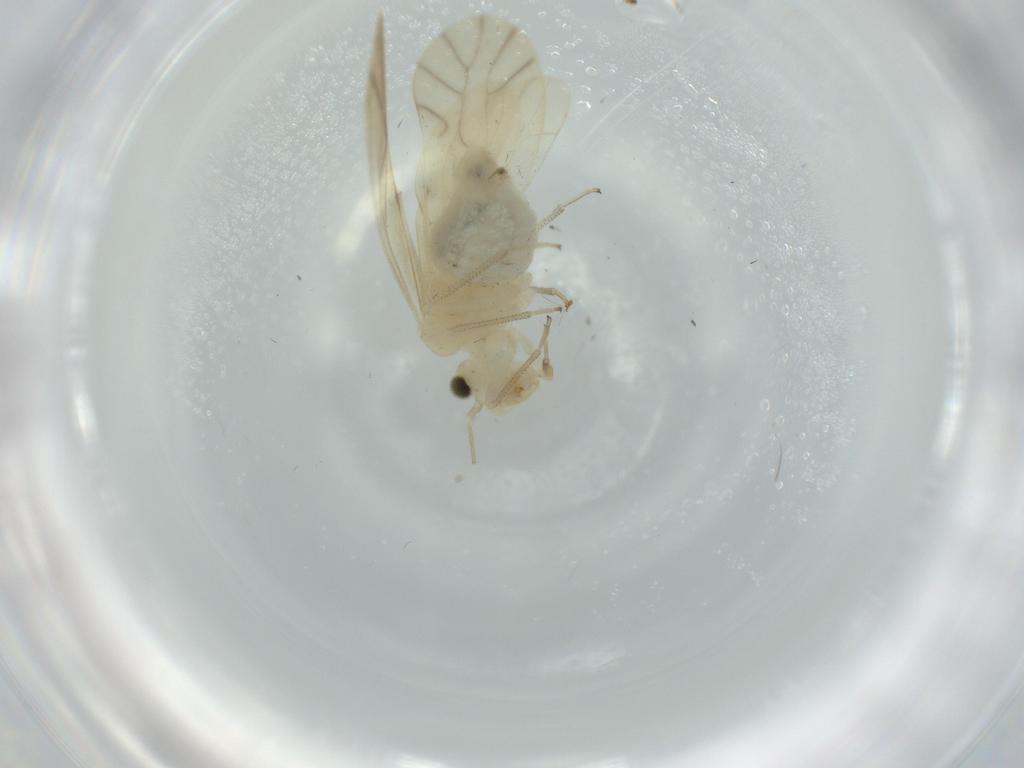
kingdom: Animalia
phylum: Arthropoda
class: Insecta
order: Psocodea
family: Caeciliusidae
